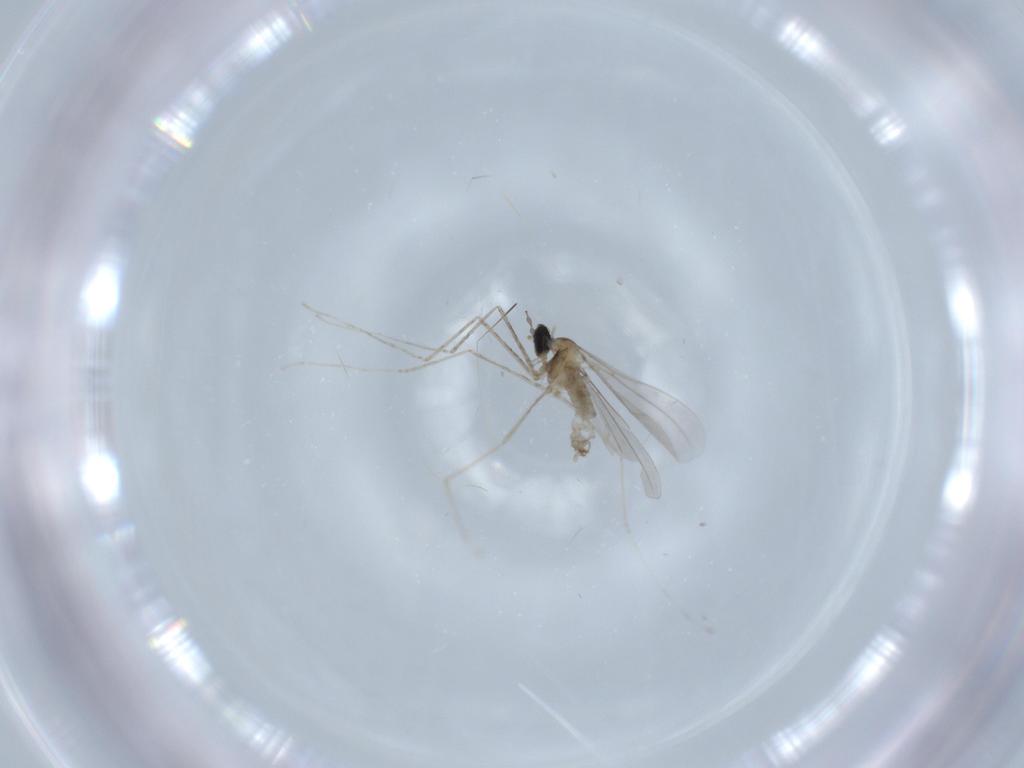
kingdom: Animalia
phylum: Arthropoda
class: Insecta
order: Diptera
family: Cecidomyiidae
